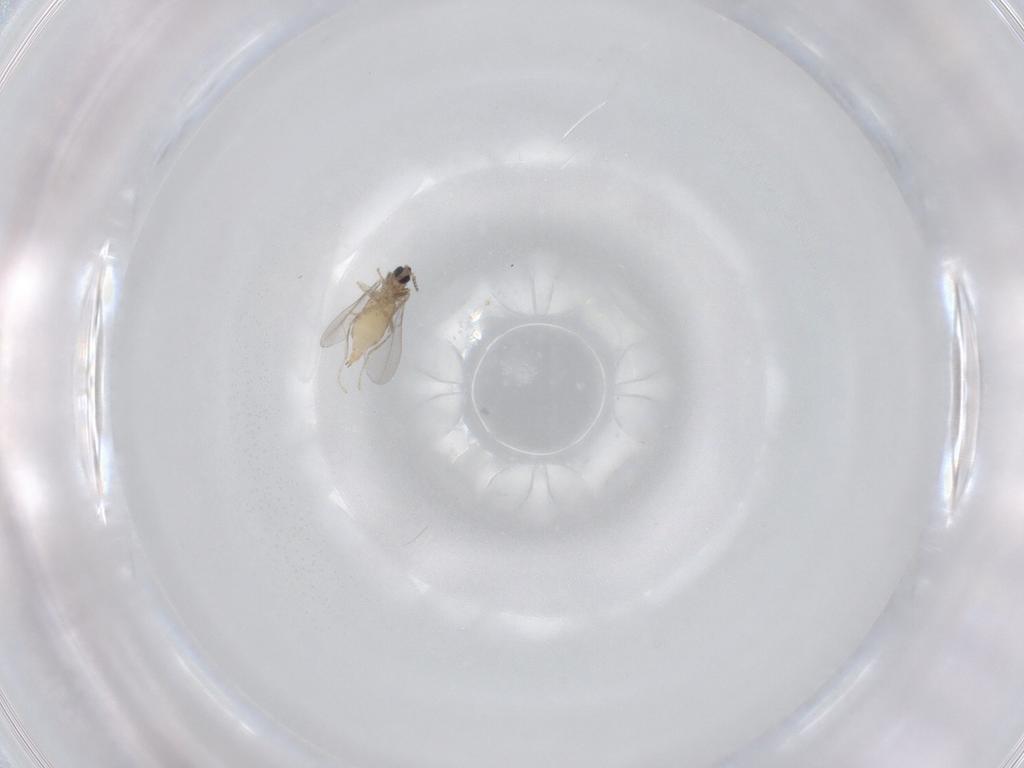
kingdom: Animalia
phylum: Arthropoda
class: Insecta
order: Diptera
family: Cecidomyiidae
